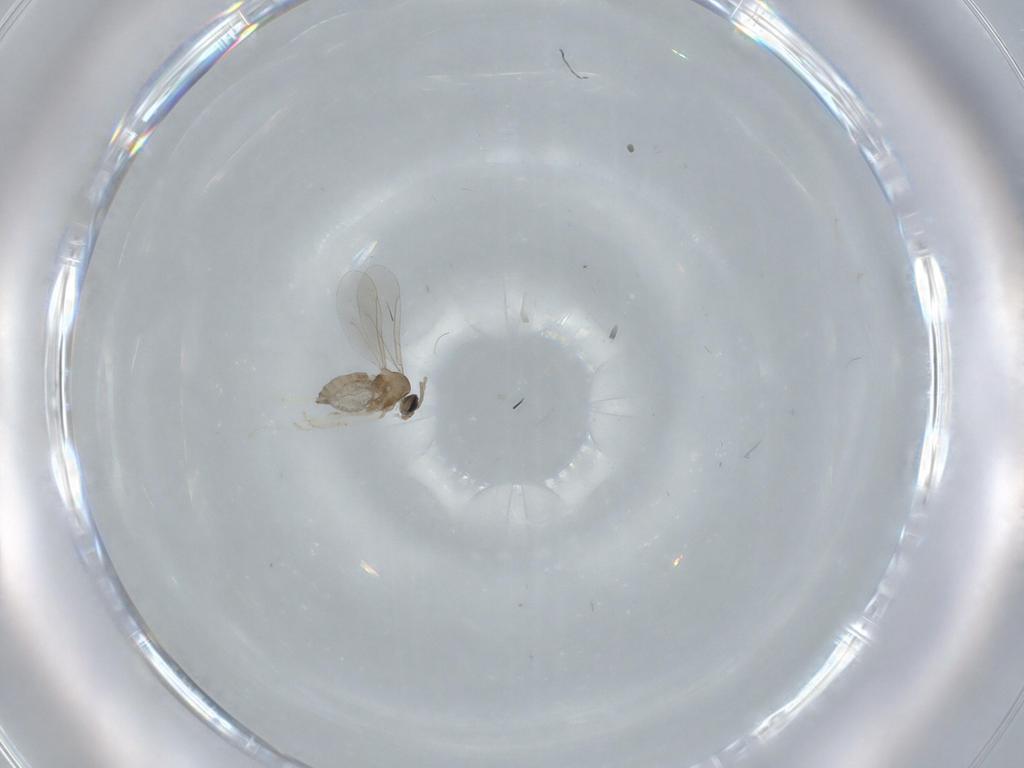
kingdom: Animalia
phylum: Arthropoda
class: Insecta
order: Diptera
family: Cecidomyiidae
